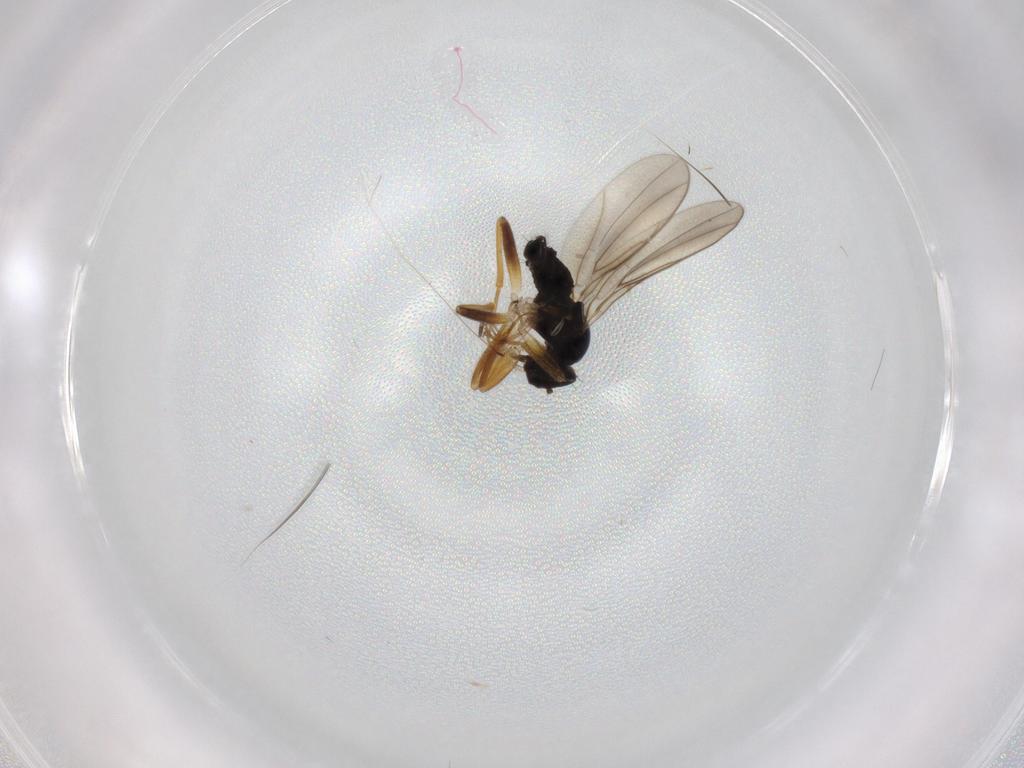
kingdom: Animalia
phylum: Arthropoda
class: Insecta
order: Diptera
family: Hybotidae
